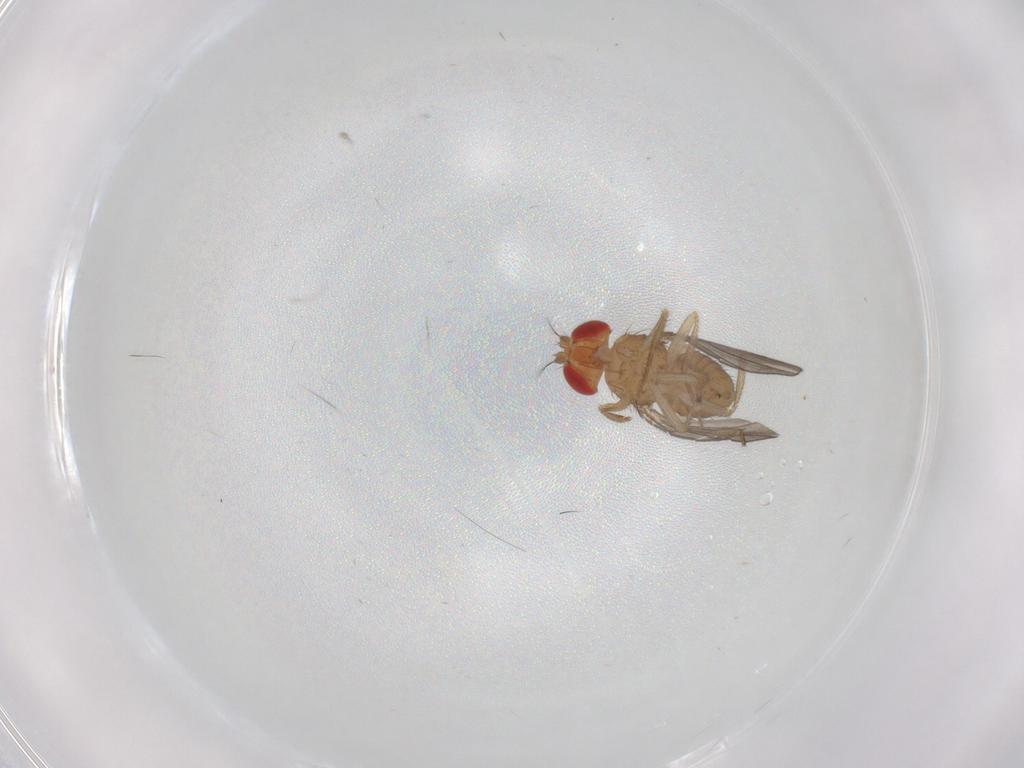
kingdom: Animalia
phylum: Arthropoda
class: Insecta
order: Diptera
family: Drosophilidae
